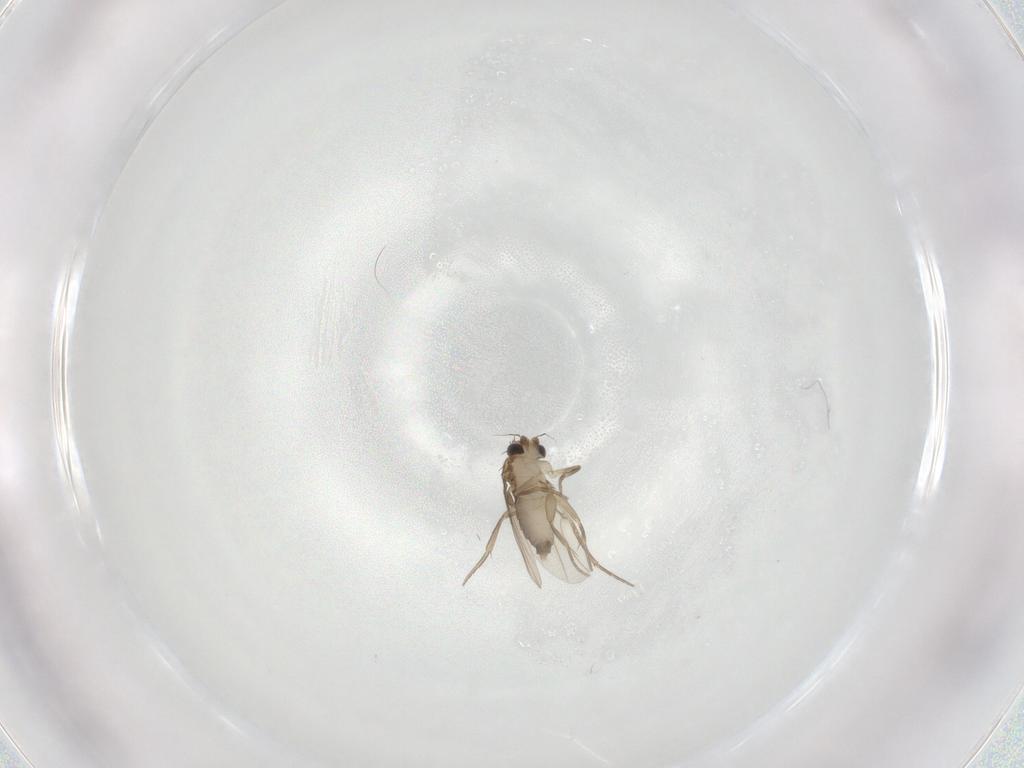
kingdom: Animalia
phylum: Arthropoda
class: Insecta
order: Diptera
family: Phoridae
